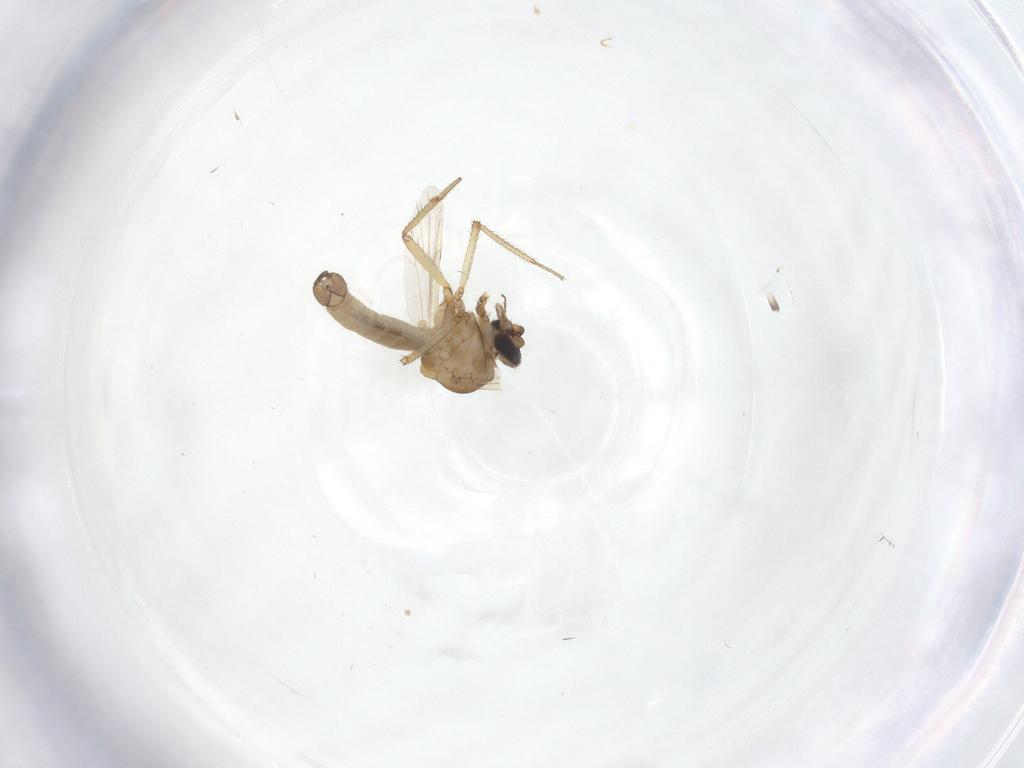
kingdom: Animalia
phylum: Arthropoda
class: Insecta
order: Diptera
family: Ceratopogonidae
